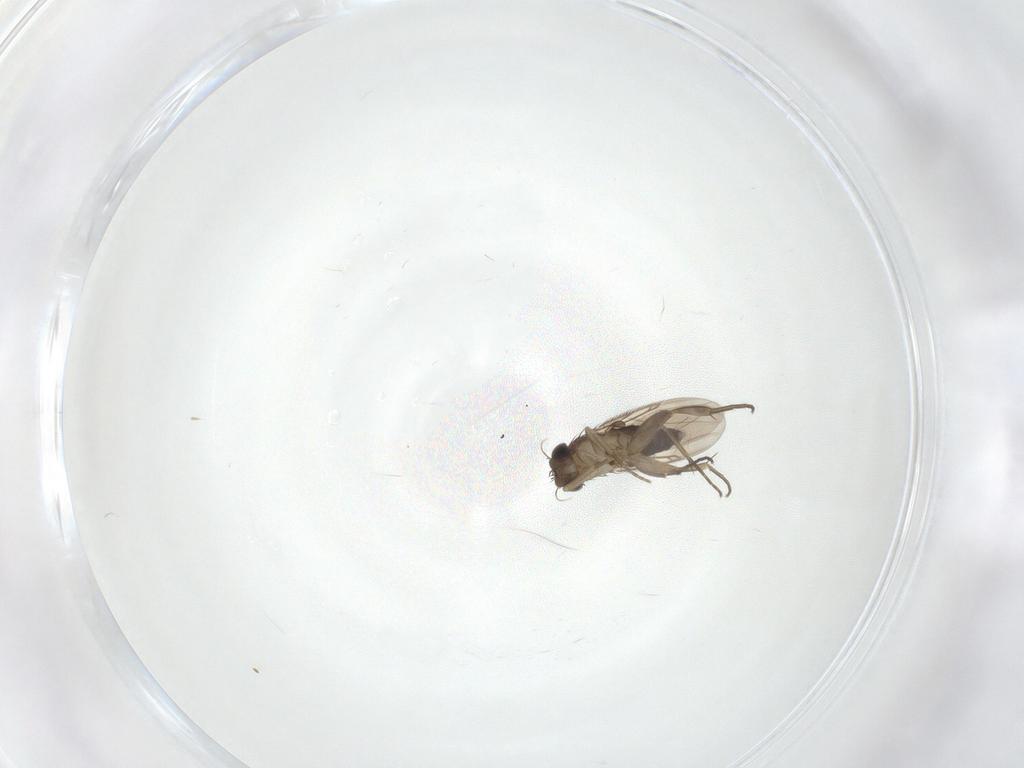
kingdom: Animalia
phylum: Arthropoda
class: Insecta
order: Diptera
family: Phoridae
